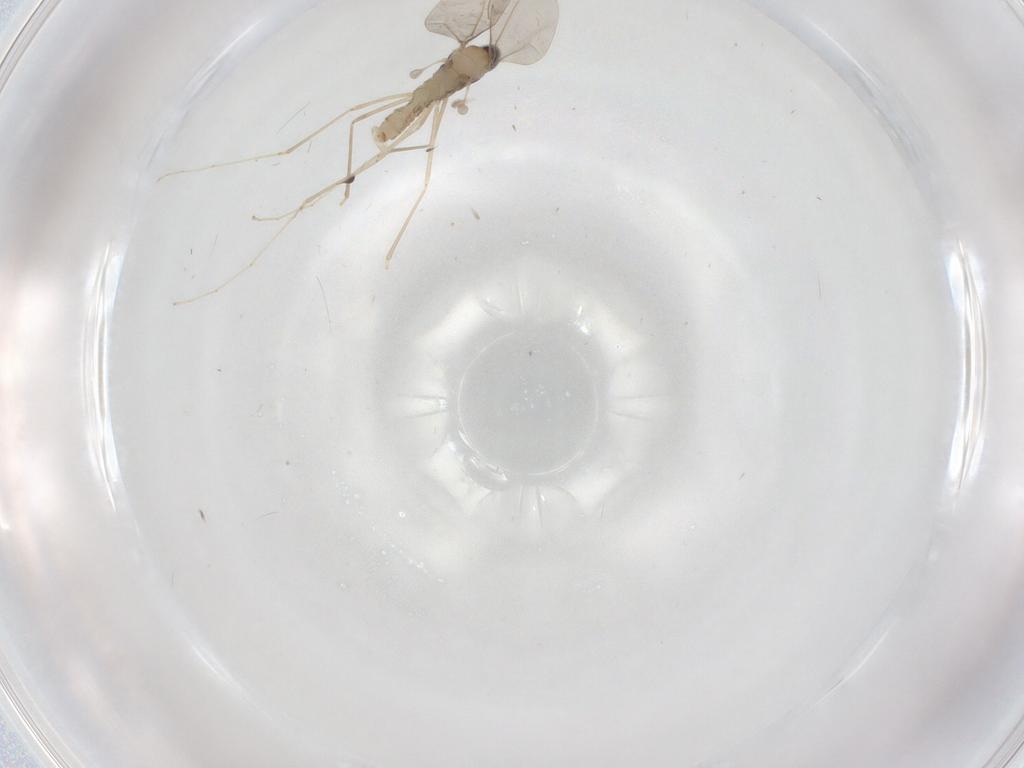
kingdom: Animalia
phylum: Arthropoda
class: Insecta
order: Diptera
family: Cecidomyiidae
